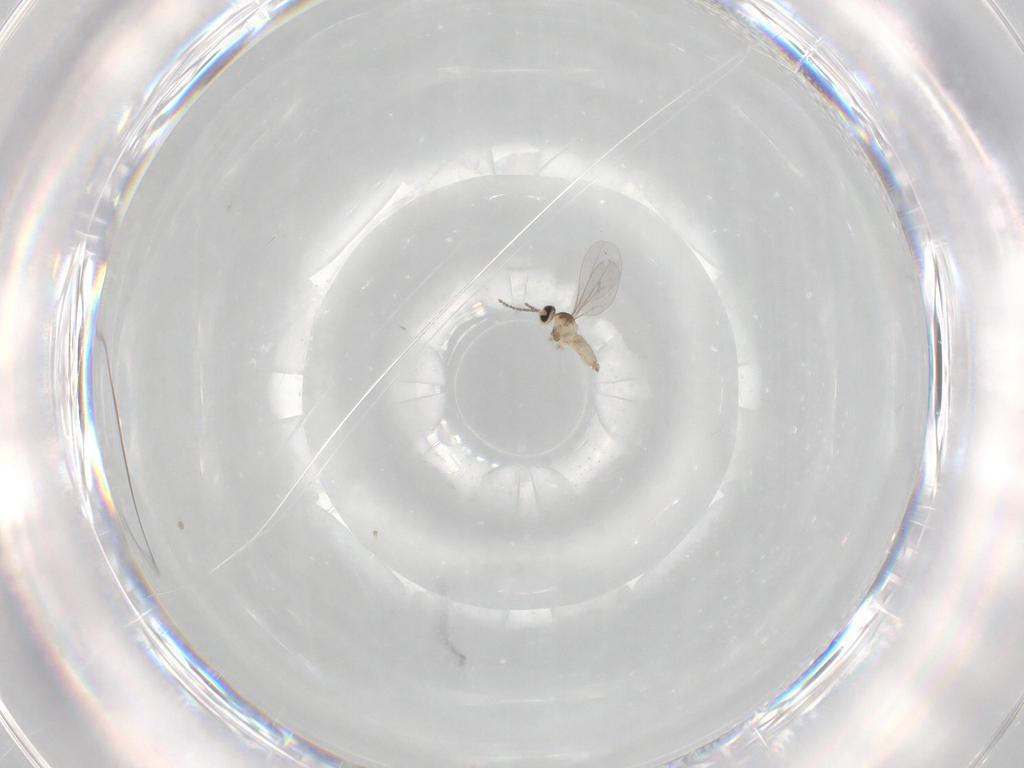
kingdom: Animalia
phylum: Arthropoda
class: Insecta
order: Diptera
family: Cecidomyiidae
